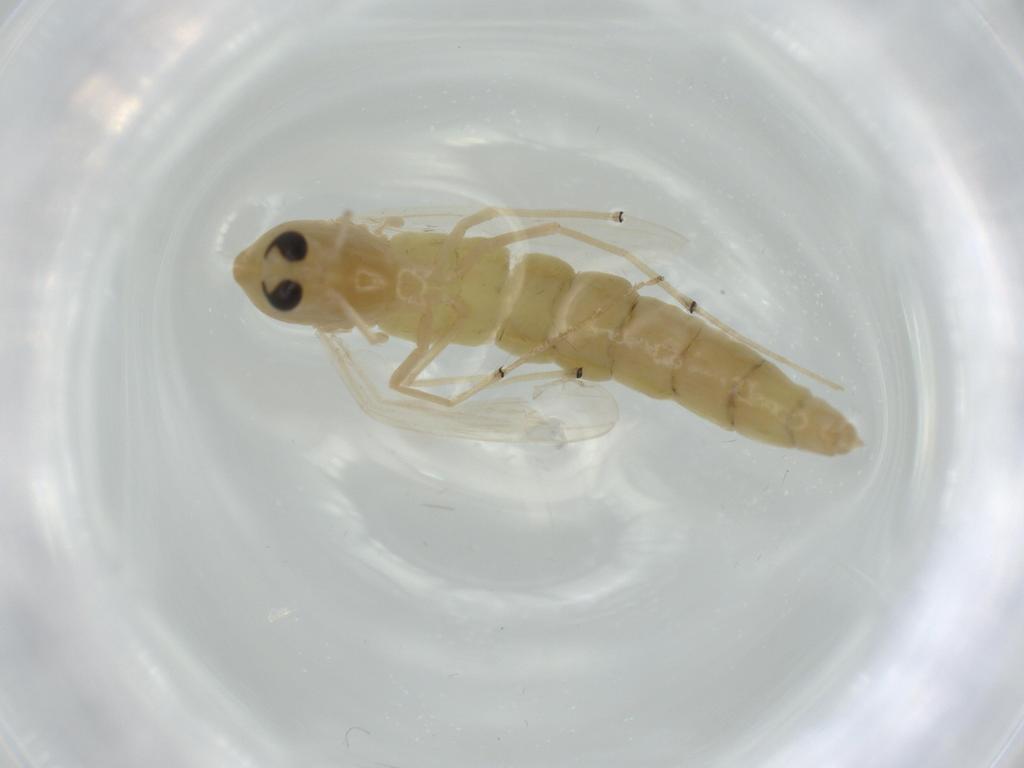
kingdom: Animalia
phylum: Arthropoda
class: Insecta
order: Diptera
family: Chironomidae
